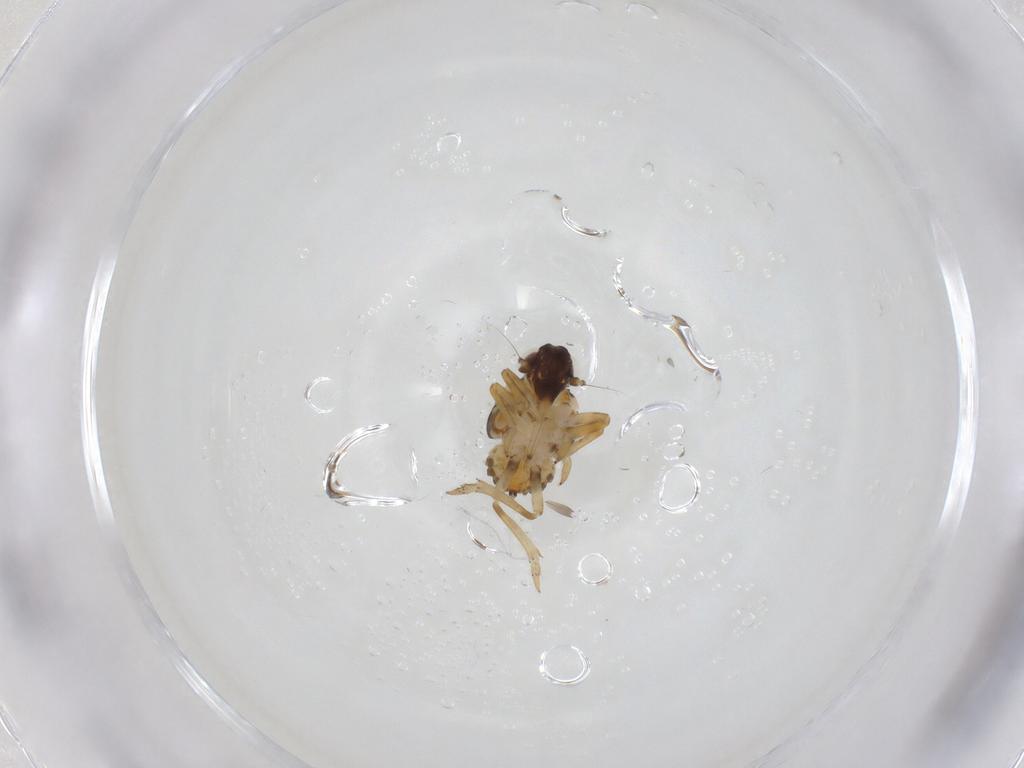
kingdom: Animalia
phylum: Arthropoda
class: Insecta
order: Hemiptera
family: Issidae
